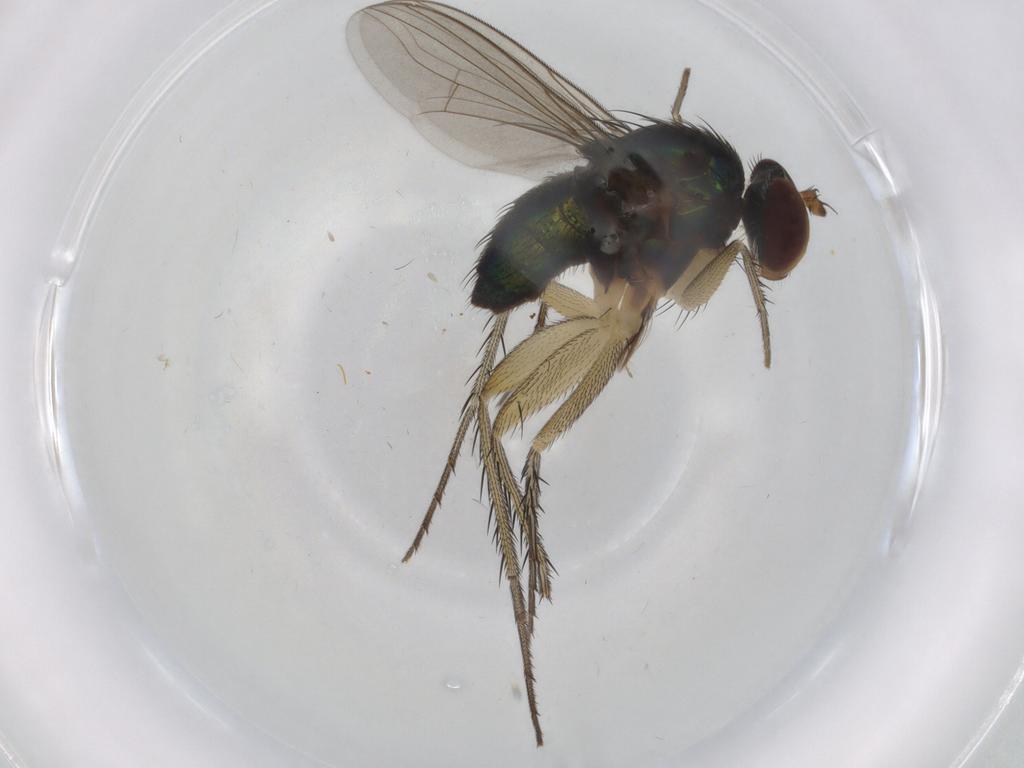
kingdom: Animalia
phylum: Arthropoda
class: Insecta
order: Diptera
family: Dolichopodidae
